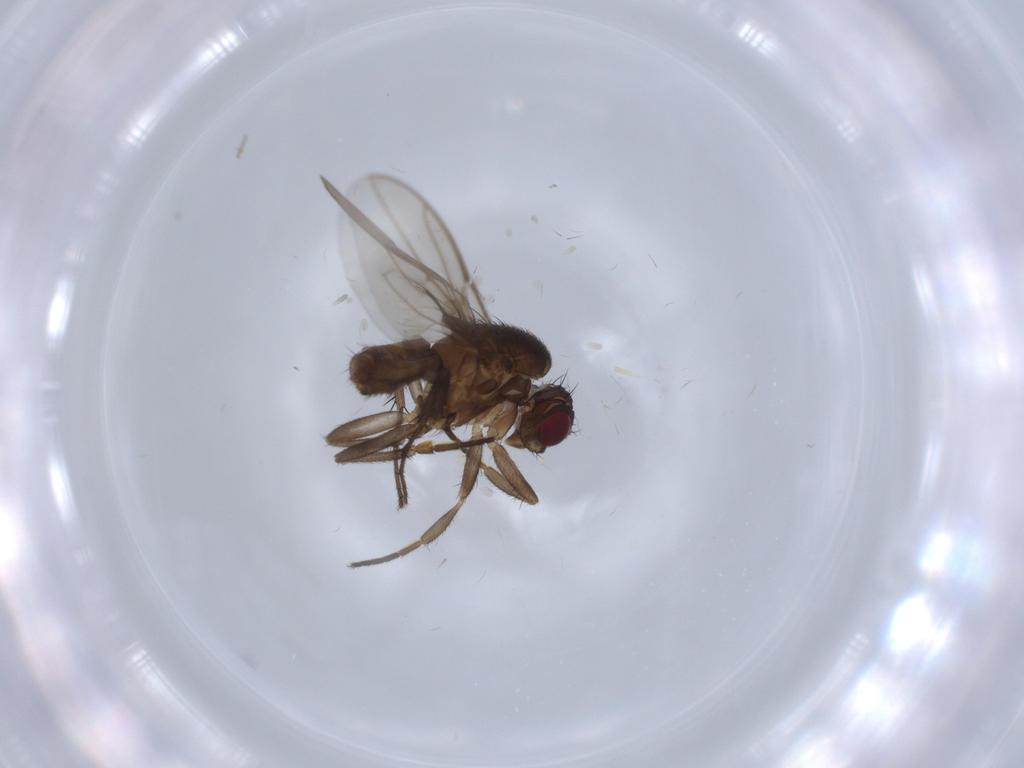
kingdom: Animalia
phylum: Arthropoda
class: Insecta
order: Diptera
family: Sphaeroceridae
